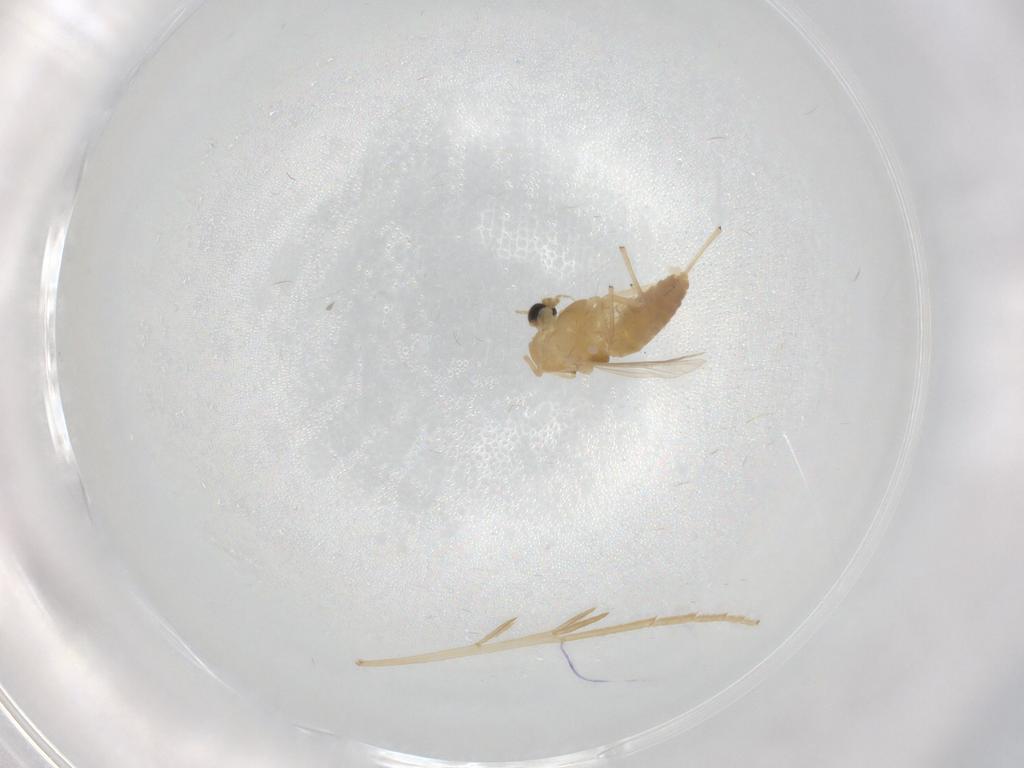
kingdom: Animalia
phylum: Arthropoda
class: Insecta
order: Diptera
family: Chironomidae
